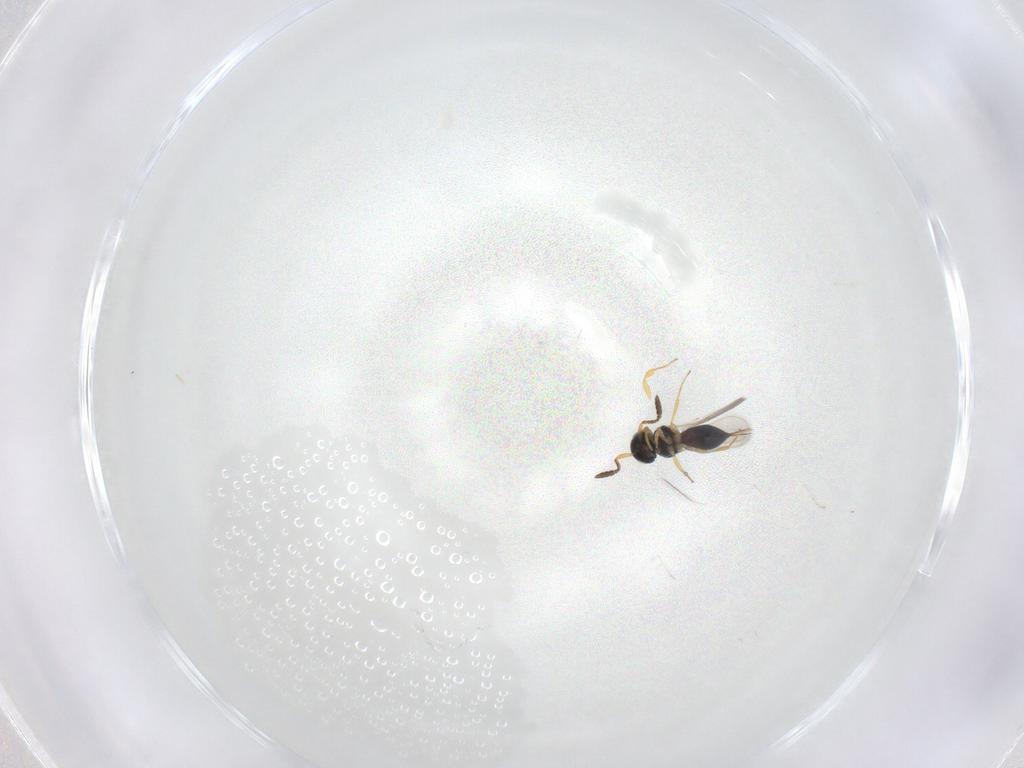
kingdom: Animalia
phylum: Arthropoda
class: Insecta
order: Hymenoptera
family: Scelionidae
